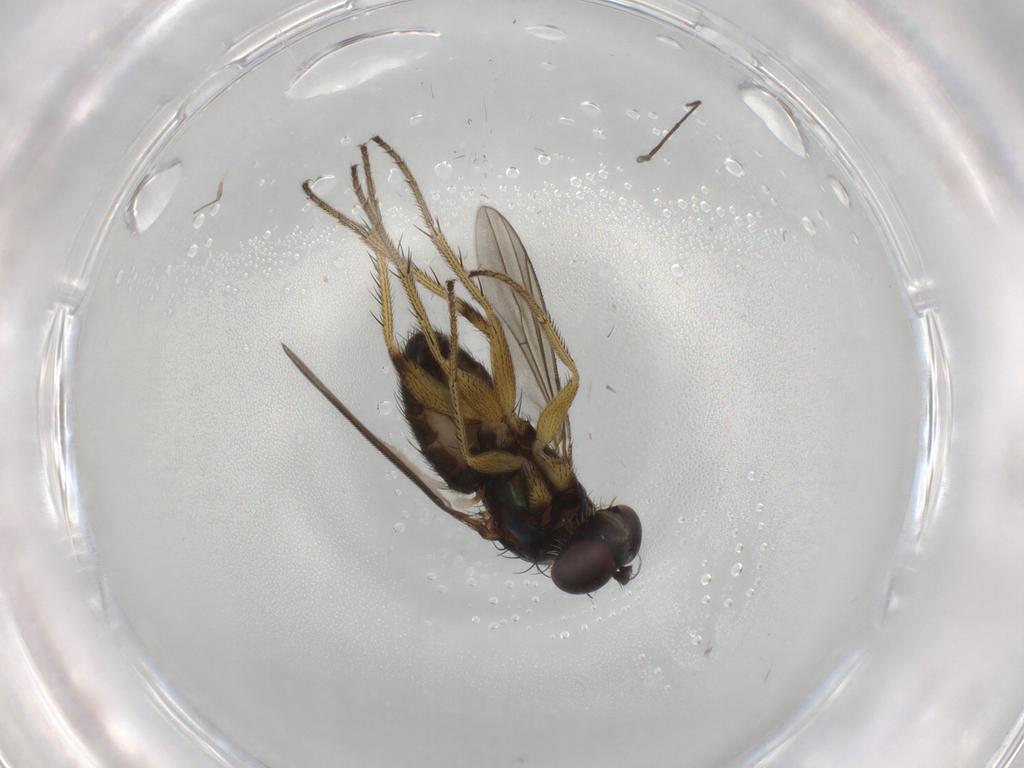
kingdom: Animalia
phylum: Arthropoda
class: Insecta
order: Diptera
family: Dolichopodidae
